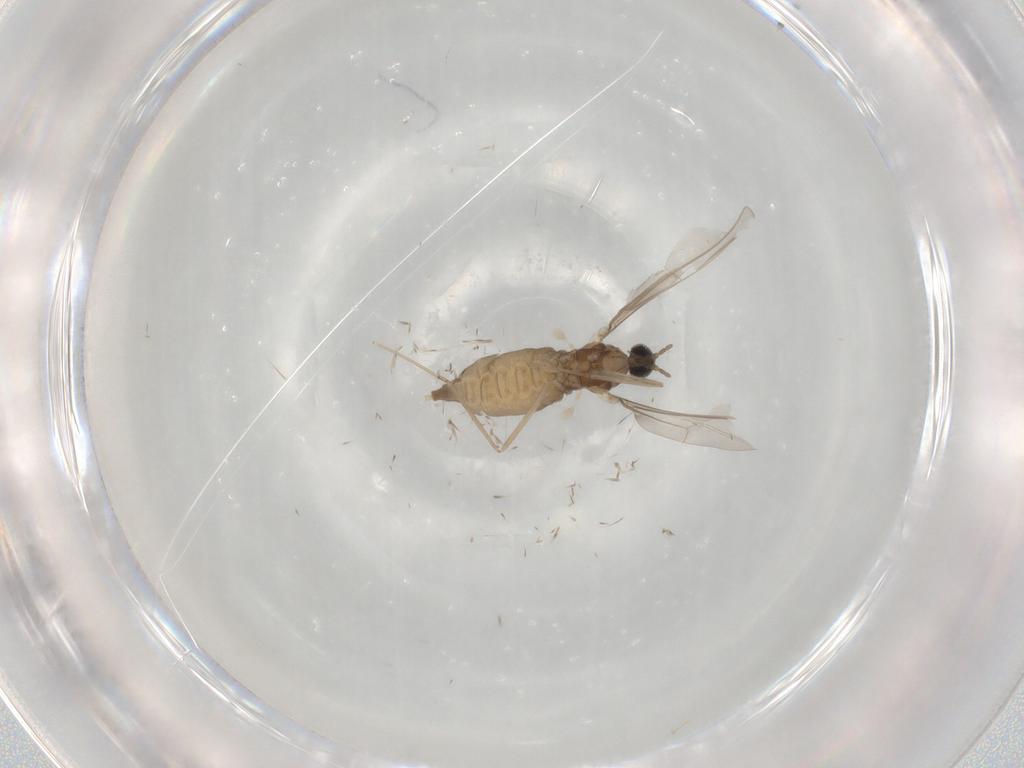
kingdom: Animalia
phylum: Arthropoda
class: Insecta
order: Diptera
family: Cecidomyiidae
